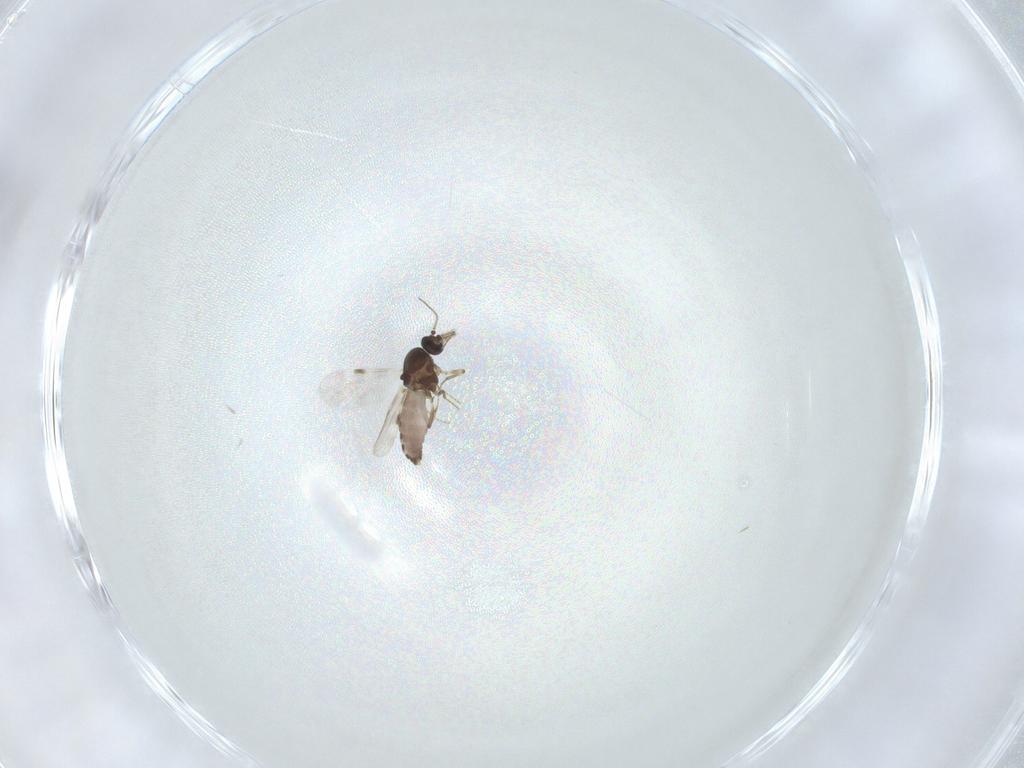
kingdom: Animalia
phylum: Arthropoda
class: Insecta
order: Diptera
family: Phoridae
